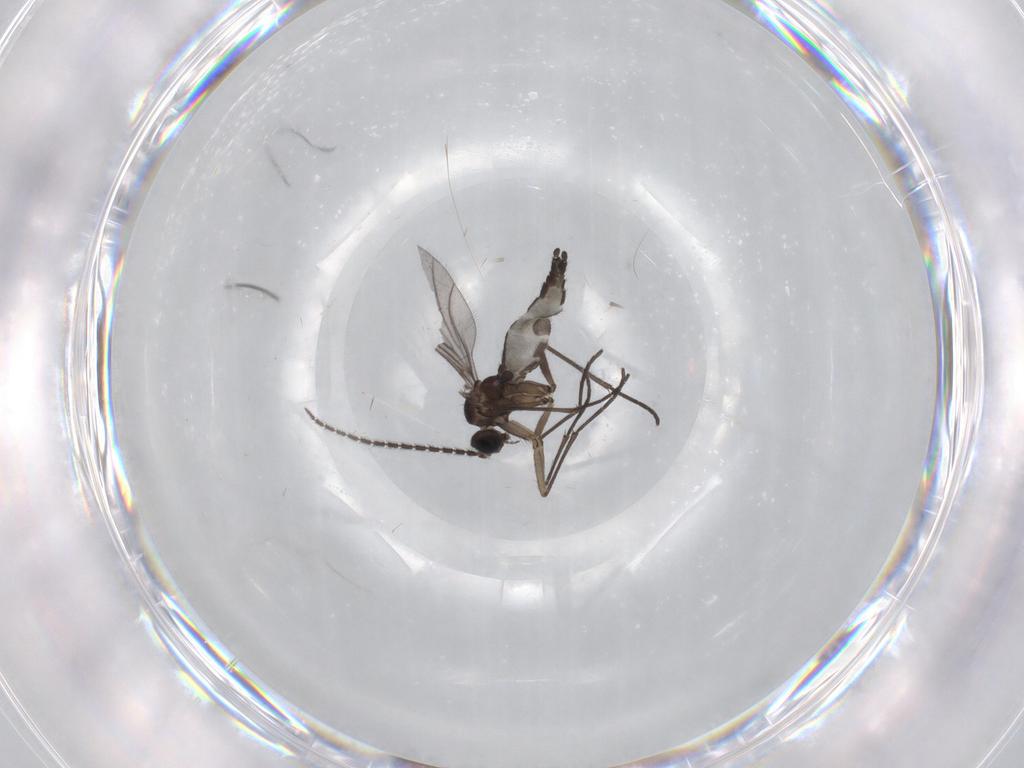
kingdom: Animalia
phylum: Arthropoda
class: Insecta
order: Diptera
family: Sciaridae
